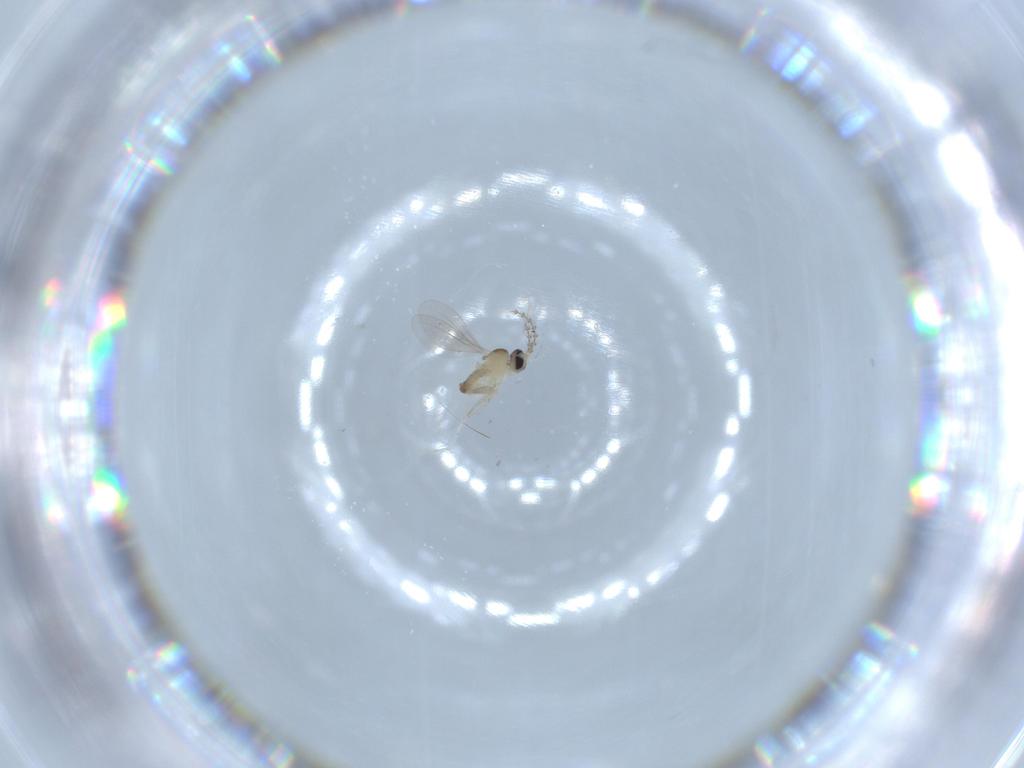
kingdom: Animalia
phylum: Arthropoda
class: Insecta
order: Diptera
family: Cecidomyiidae
